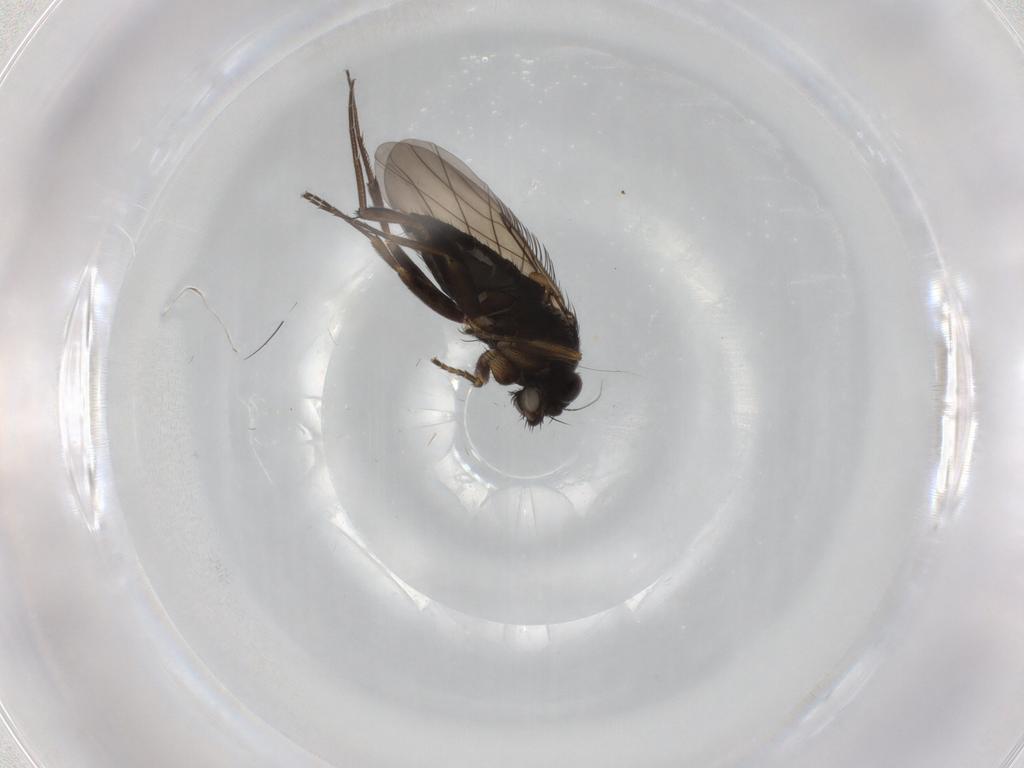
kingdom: Animalia
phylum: Arthropoda
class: Insecta
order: Diptera
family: Phoridae
